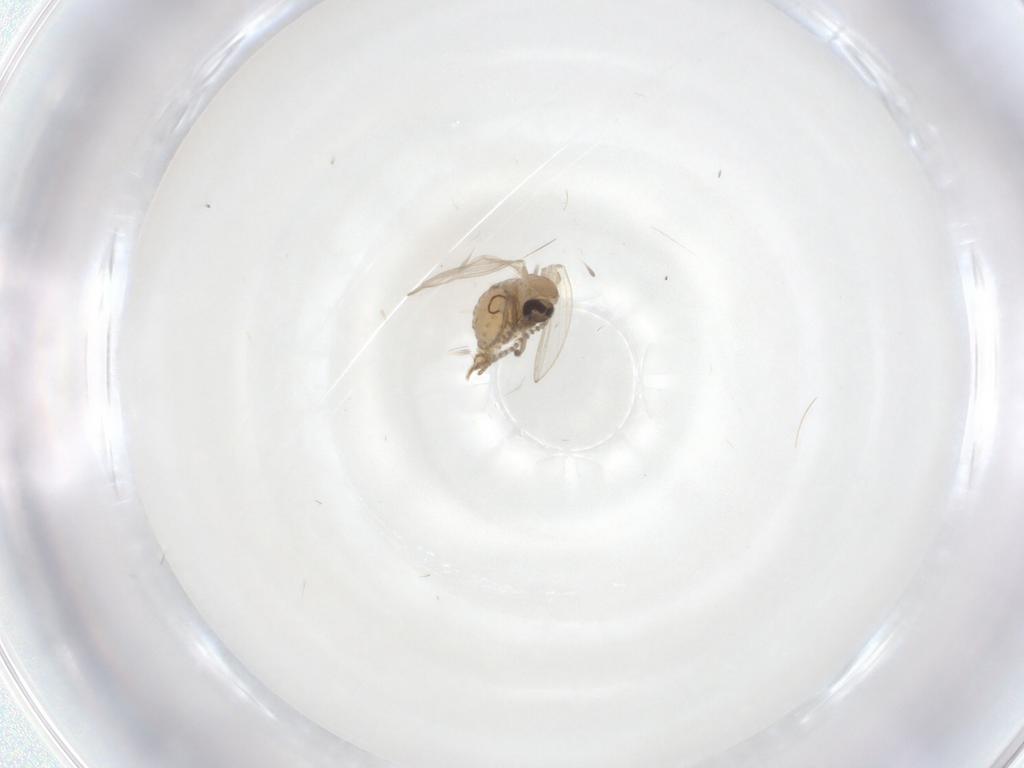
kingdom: Animalia
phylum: Arthropoda
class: Insecta
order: Diptera
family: Psychodidae
